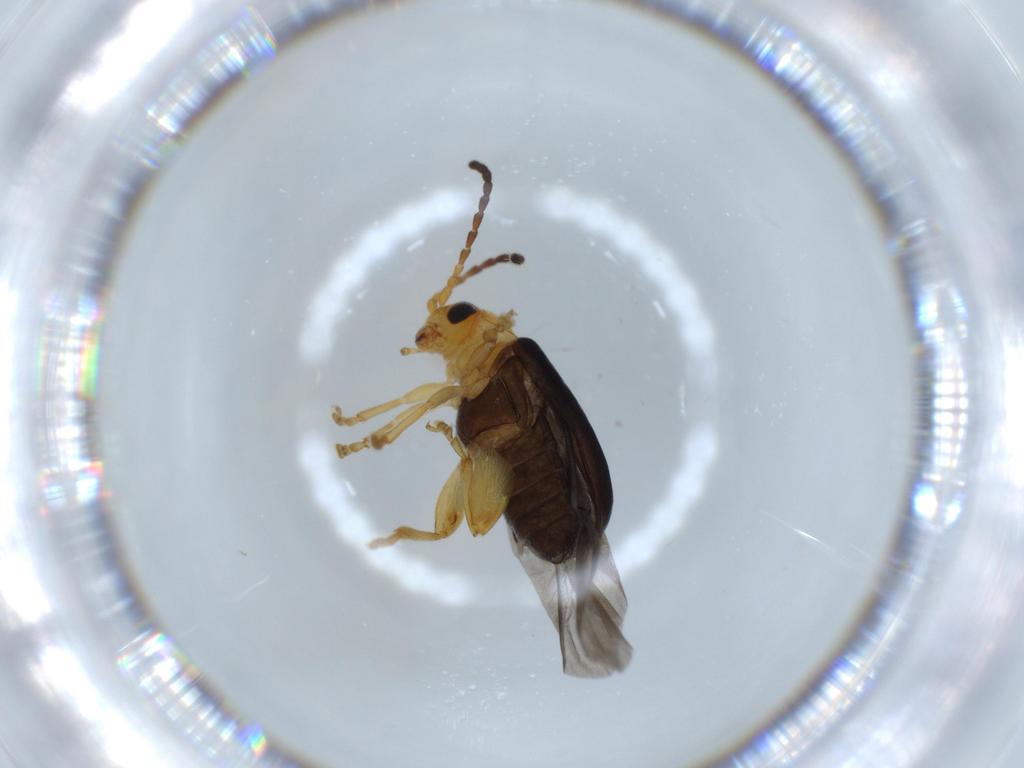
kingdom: Animalia
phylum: Arthropoda
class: Insecta
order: Coleoptera
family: Chrysomelidae
